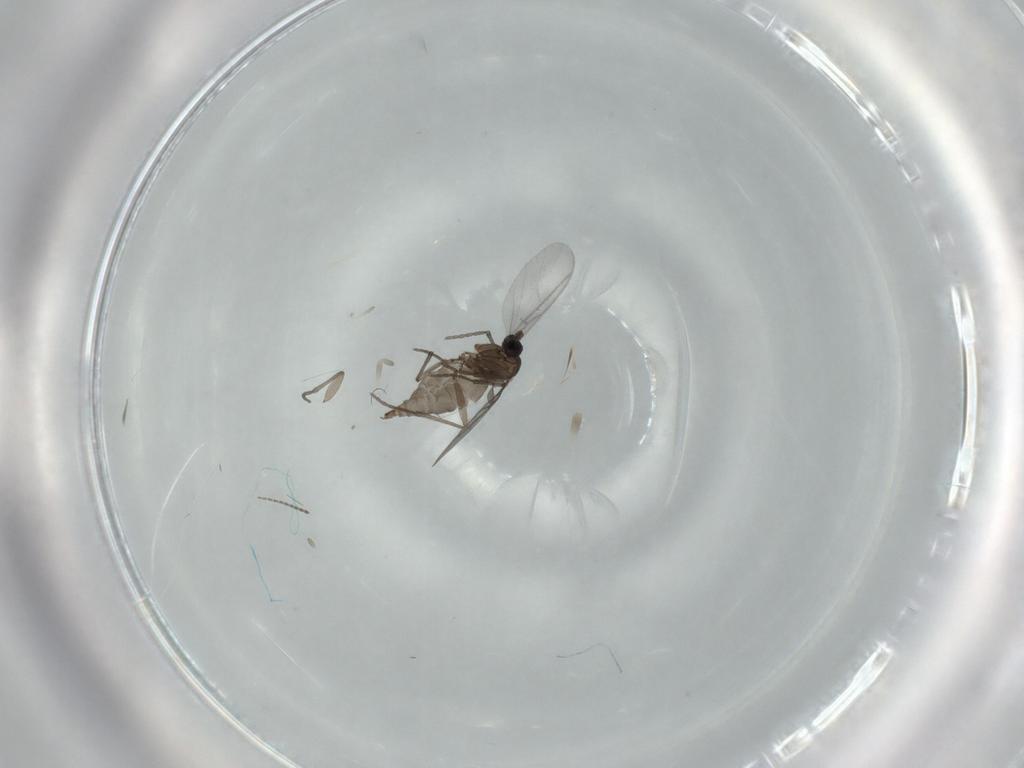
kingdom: Animalia
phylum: Arthropoda
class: Insecta
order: Diptera
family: Sciaridae
